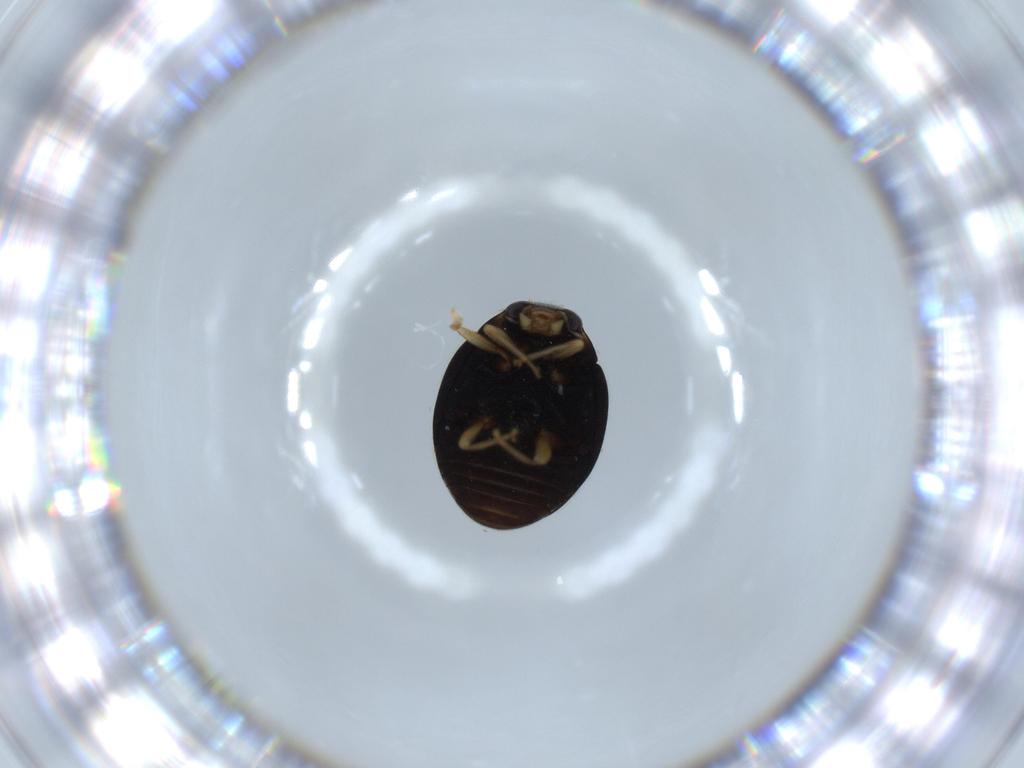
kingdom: Animalia
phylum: Arthropoda
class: Insecta
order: Coleoptera
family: Coccinellidae
